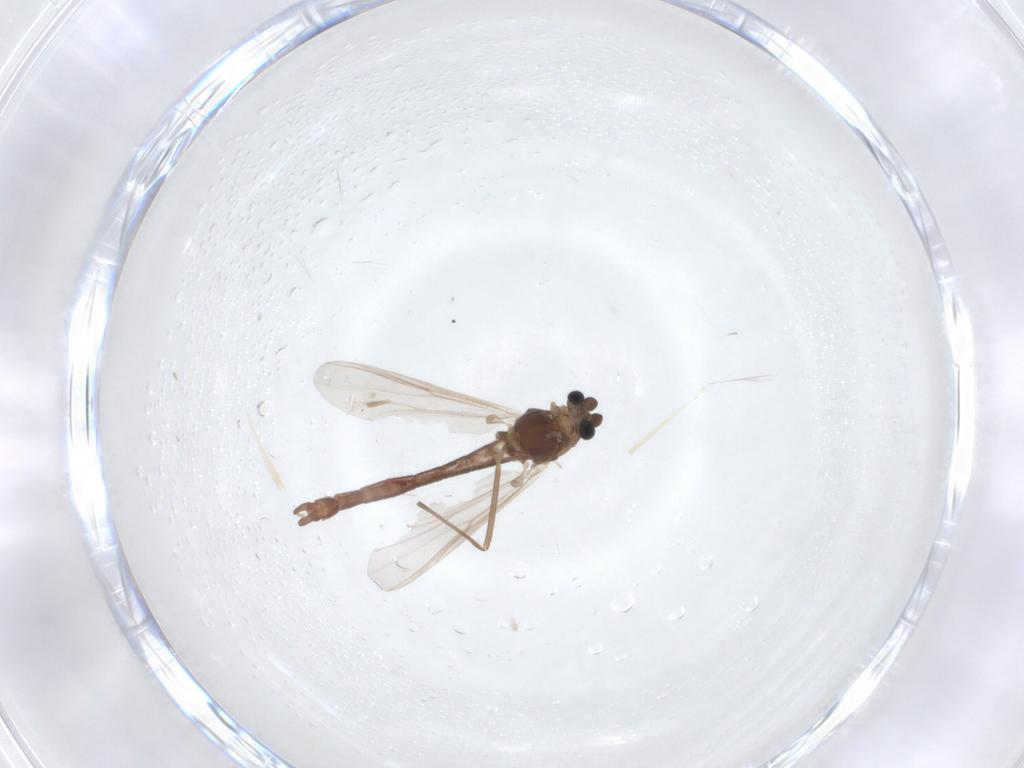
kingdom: Animalia
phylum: Arthropoda
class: Insecta
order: Diptera
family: Chironomidae
